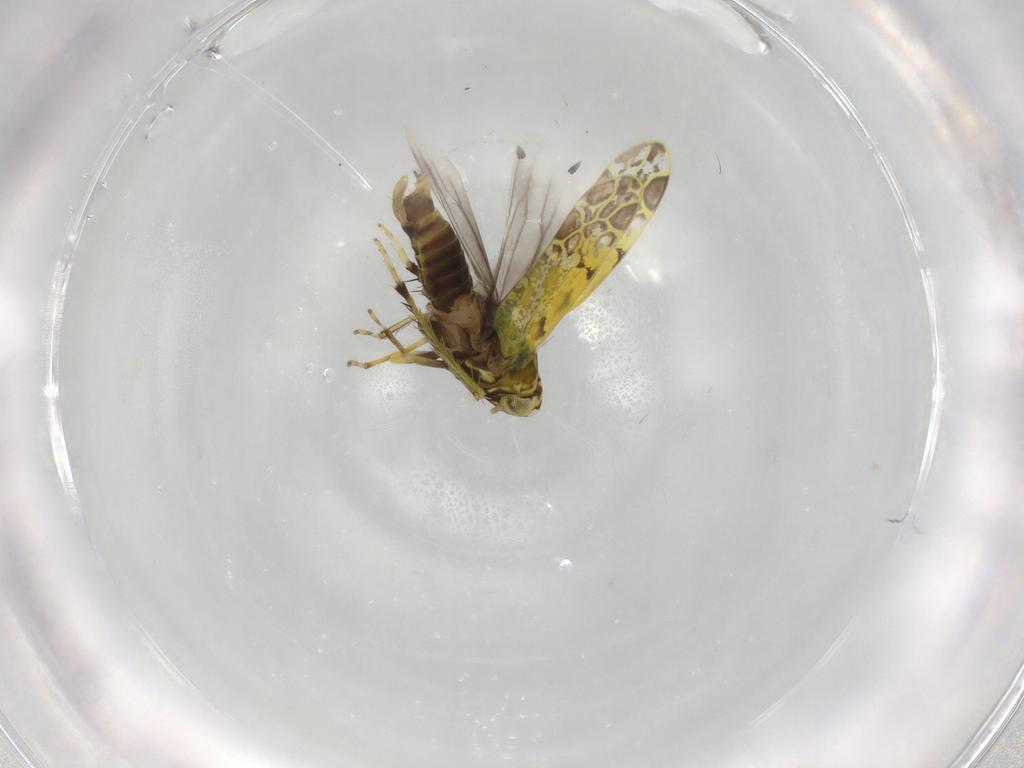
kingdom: Animalia
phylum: Arthropoda
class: Insecta
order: Hemiptera
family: Cicadellidae
